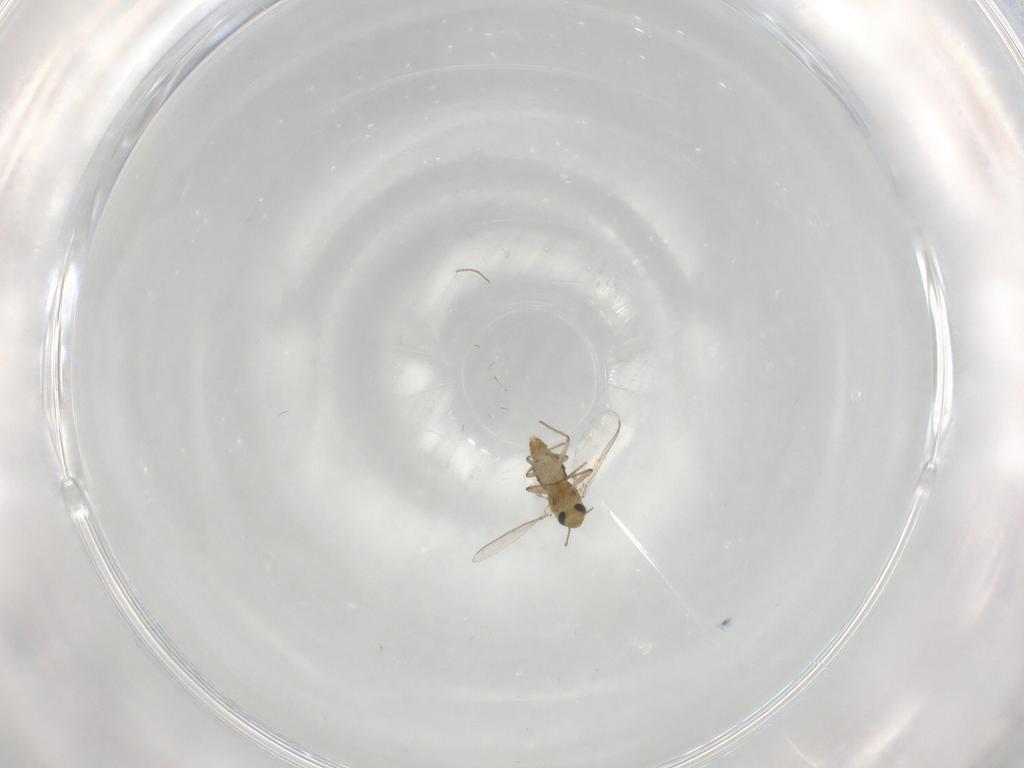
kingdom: Animalia
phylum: Arthropoda
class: Insecta
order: Diptera
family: Chironomidae
